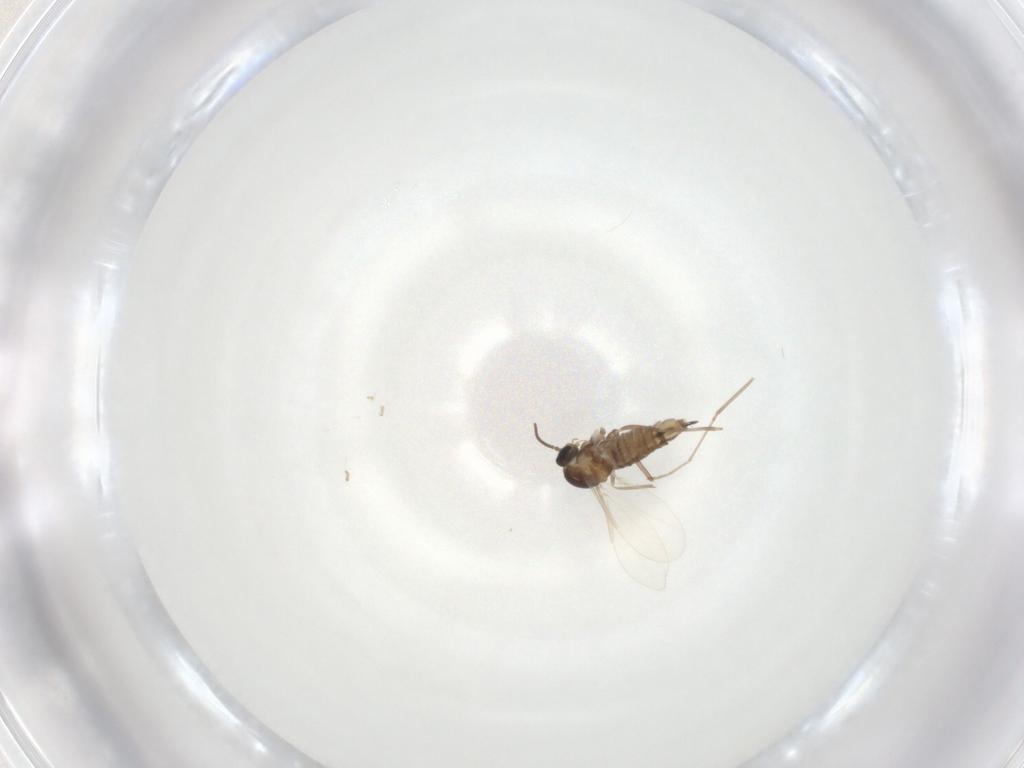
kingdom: Animalia
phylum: Arthropoda
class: Insecta
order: Diptera
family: Cecidomyiidae
